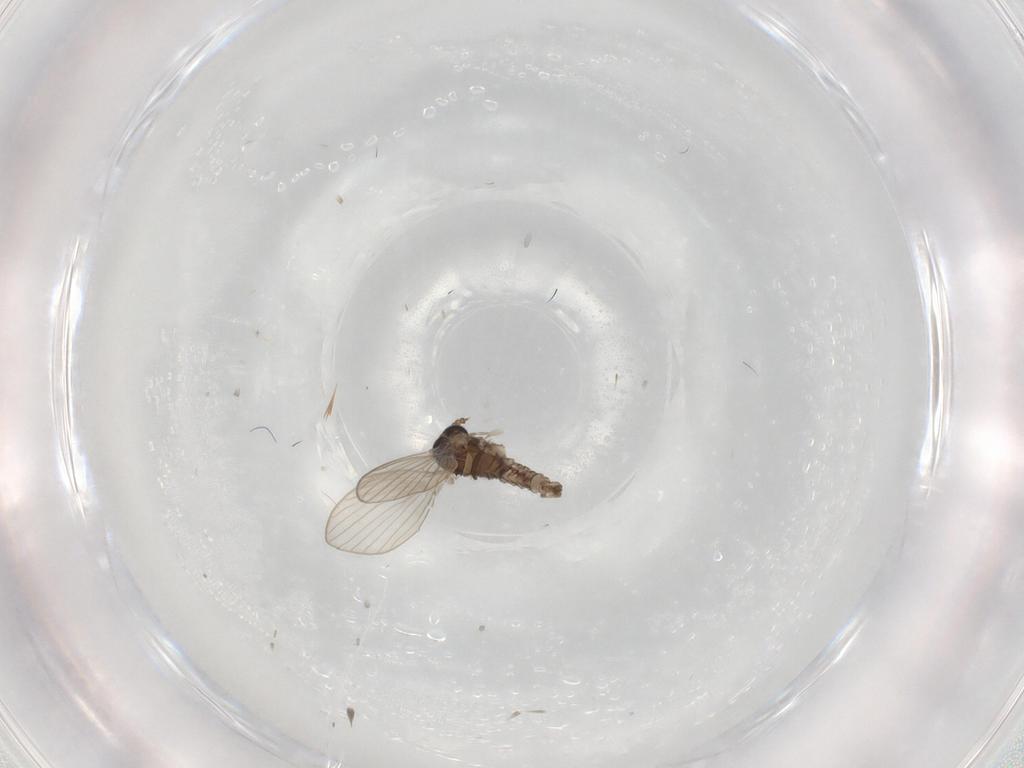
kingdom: Animalia
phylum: Arthropoda
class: Insecta
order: Diptera
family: Psychodidae
